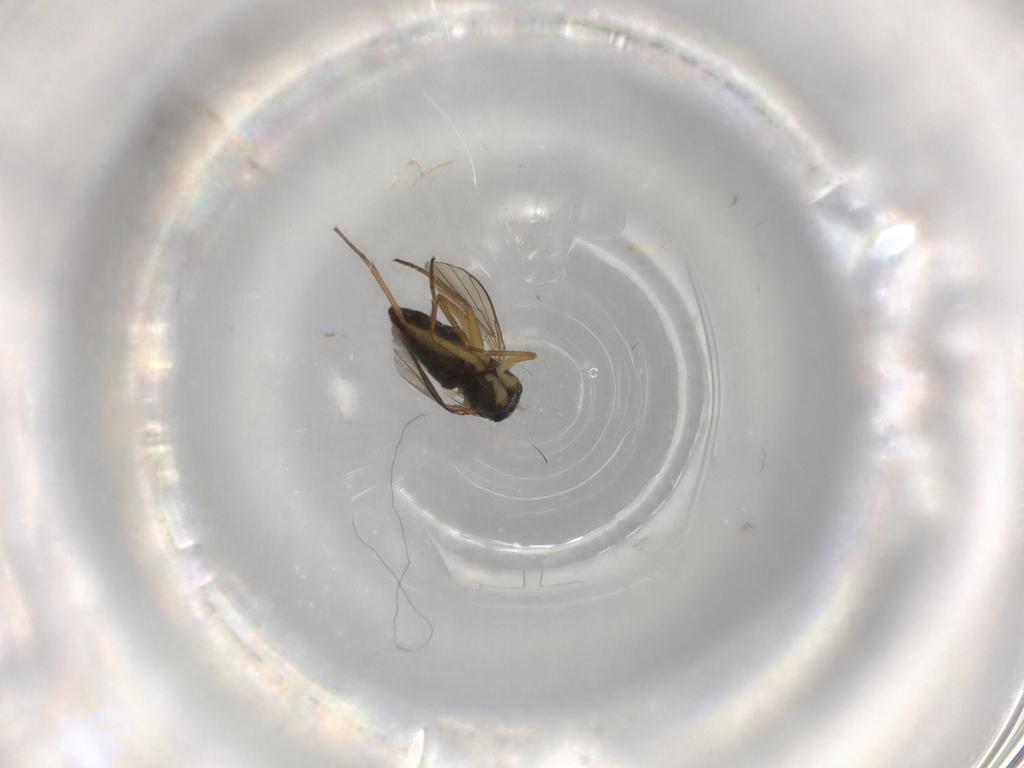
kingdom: Animalia
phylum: Arthropoda
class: Insecta
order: Diptera
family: Dolichopodidae
